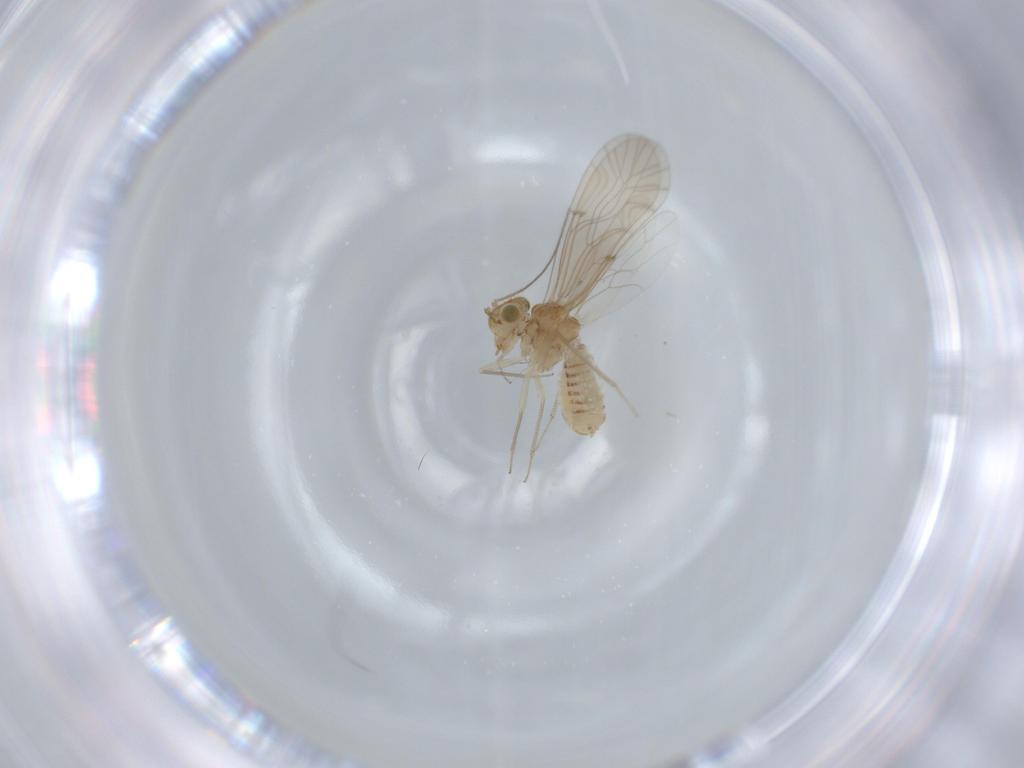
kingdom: Animalia
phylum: Arthropoda
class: Insecta
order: Psocodea
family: Lachesillidae
